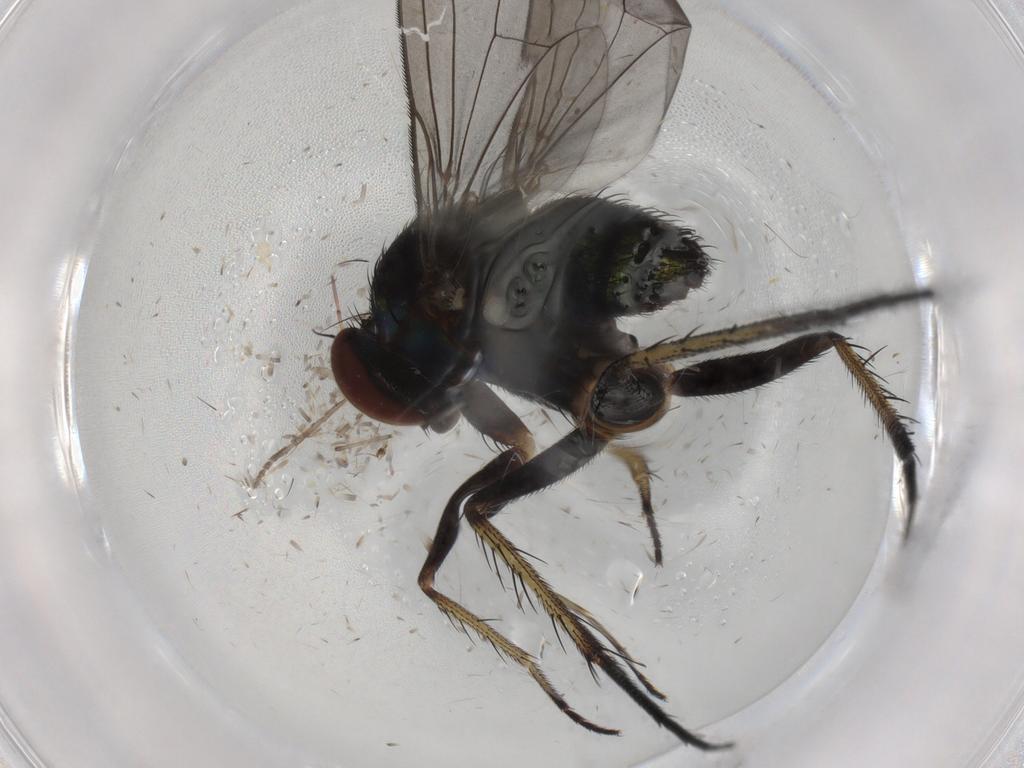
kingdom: Animalia
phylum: Arthropoda
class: Insecta
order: Diptera
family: Dolichopodidae
